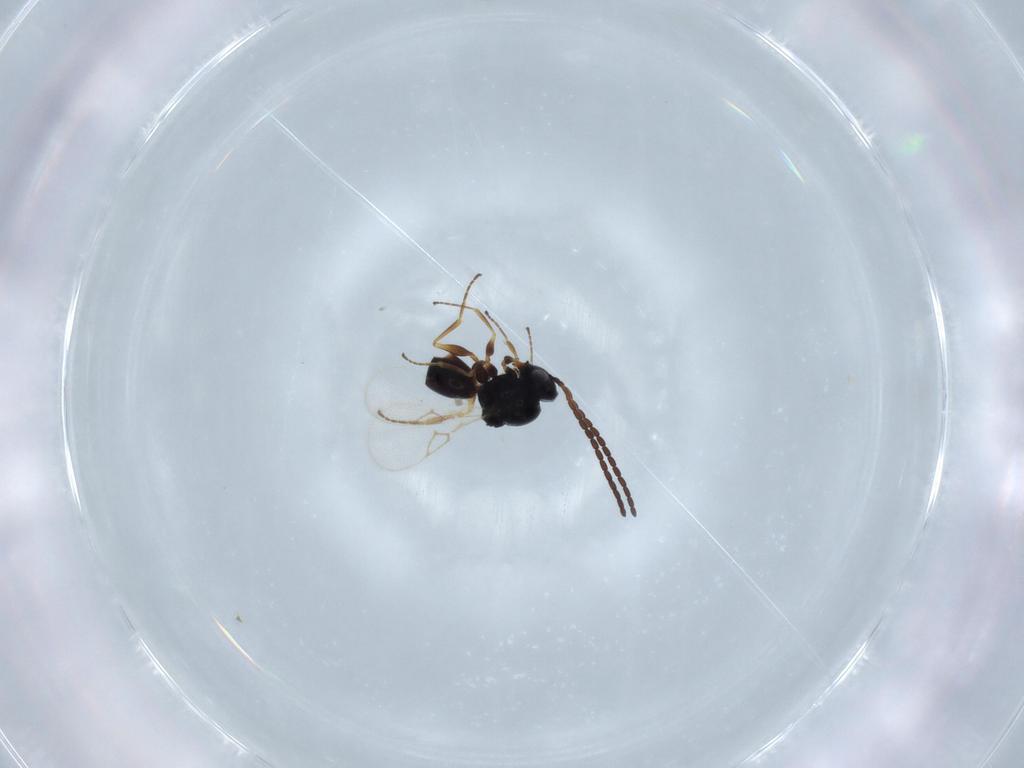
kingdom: Animalia
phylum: Arthropoda
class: Insecta
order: Hymenoptera
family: Figitidae
